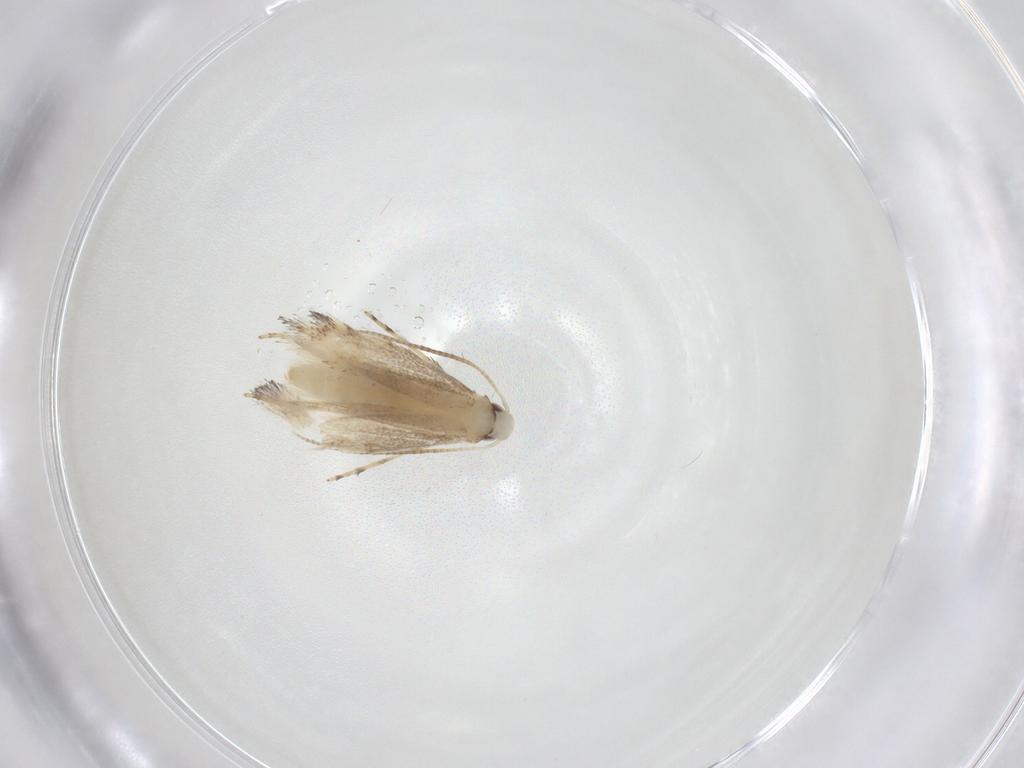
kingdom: Animalia
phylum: Arthropoda
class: Insecta
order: Lepidoptera
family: Gracillariidae
